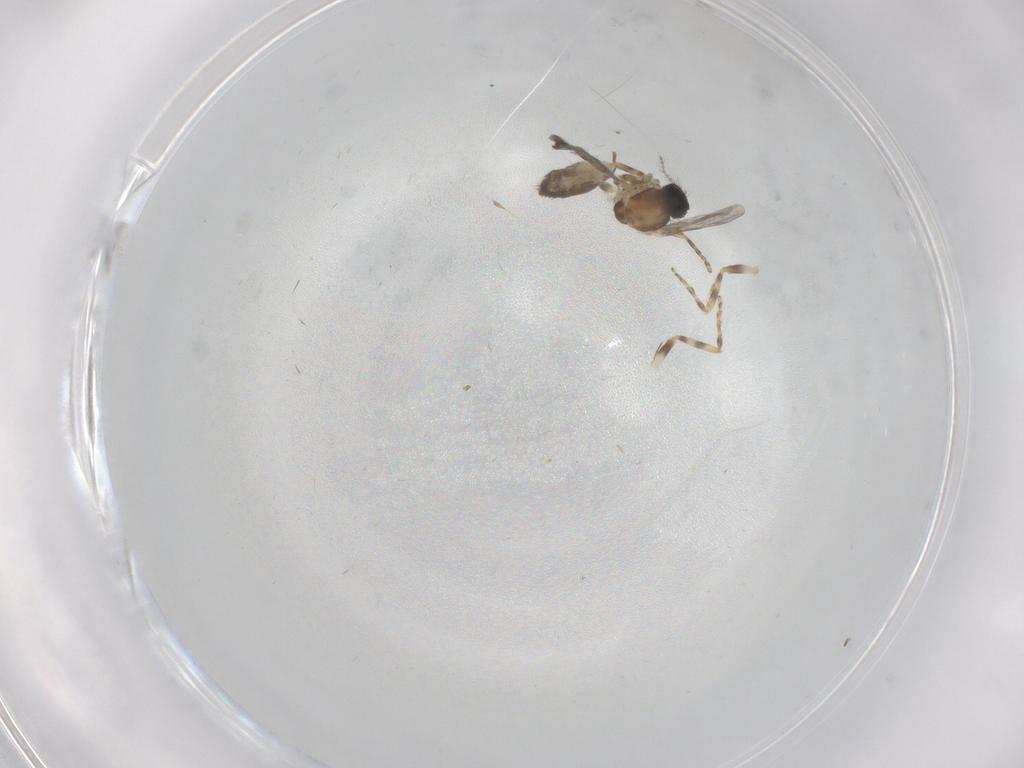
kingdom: Animalia
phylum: Arthropoda
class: Insecta
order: Diptera
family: Ceratopogonidae
